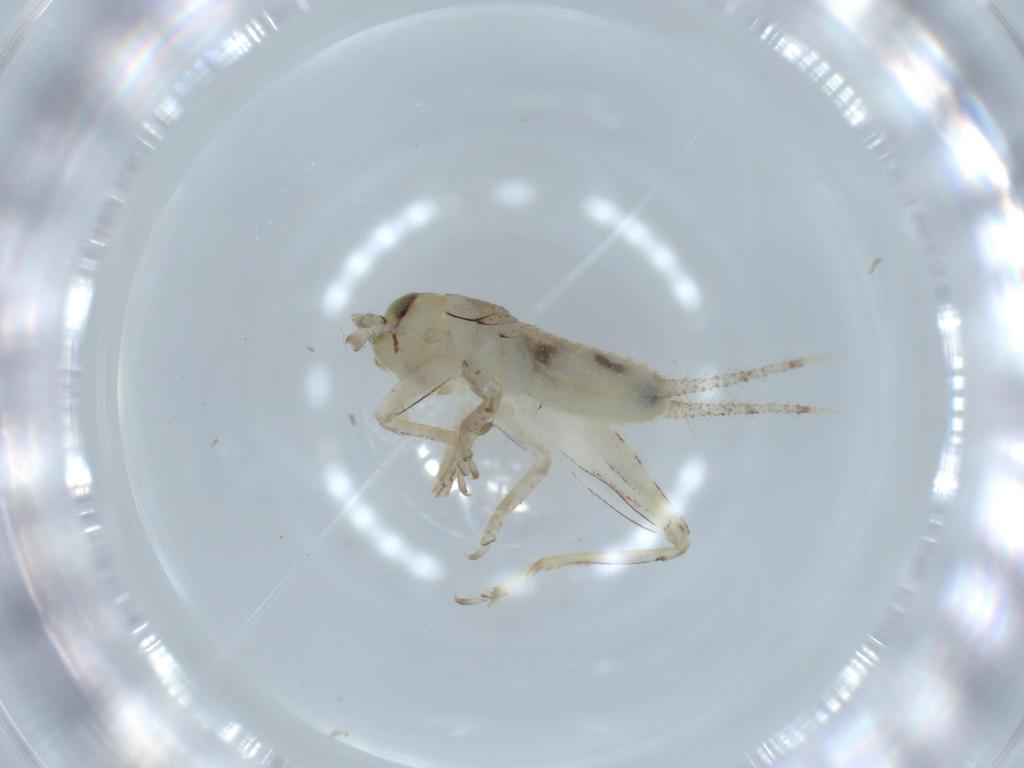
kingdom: Animalia
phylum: Arthropoda
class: Insecta
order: Orthoptera
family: Gryllidae
